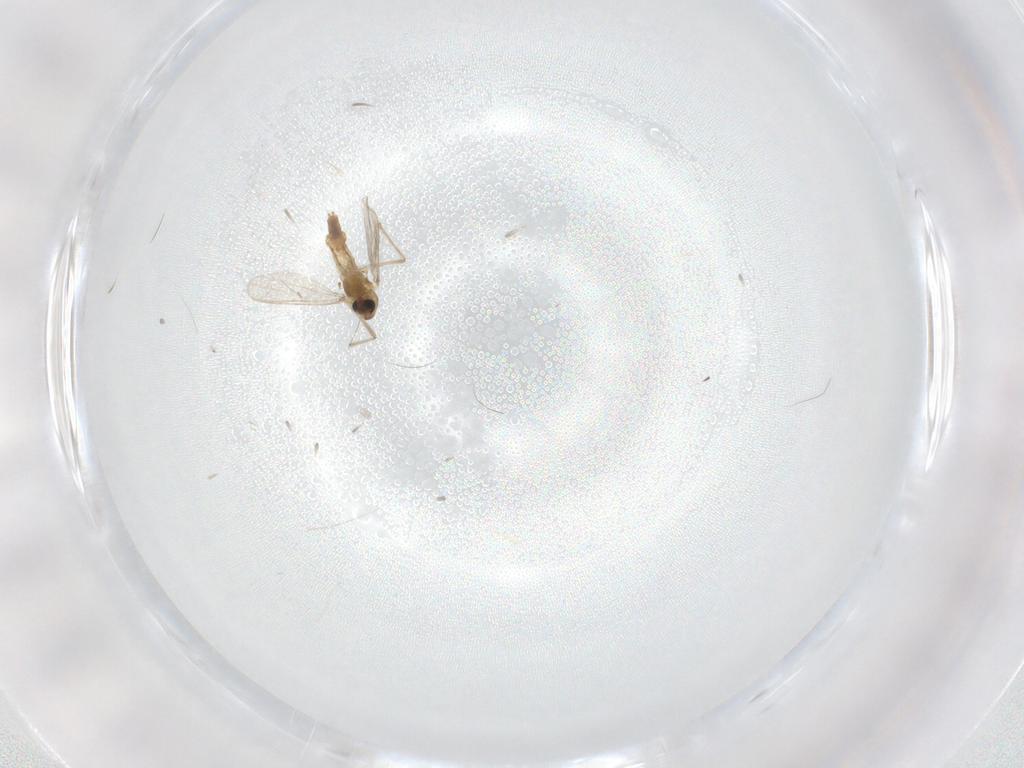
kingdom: Animalia
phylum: Arthropoda
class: Insecta
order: Diptera
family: Chironomidae
